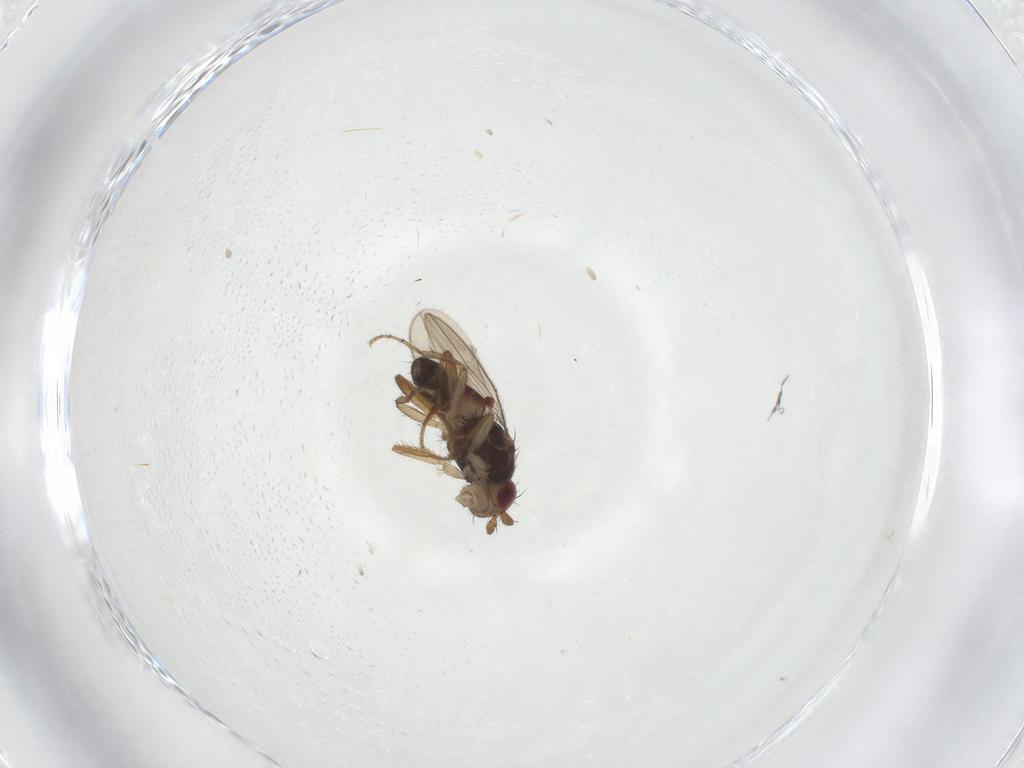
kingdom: Animalia
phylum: Arthropoda
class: Insecta
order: Diptera
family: Sphaeroceridae
